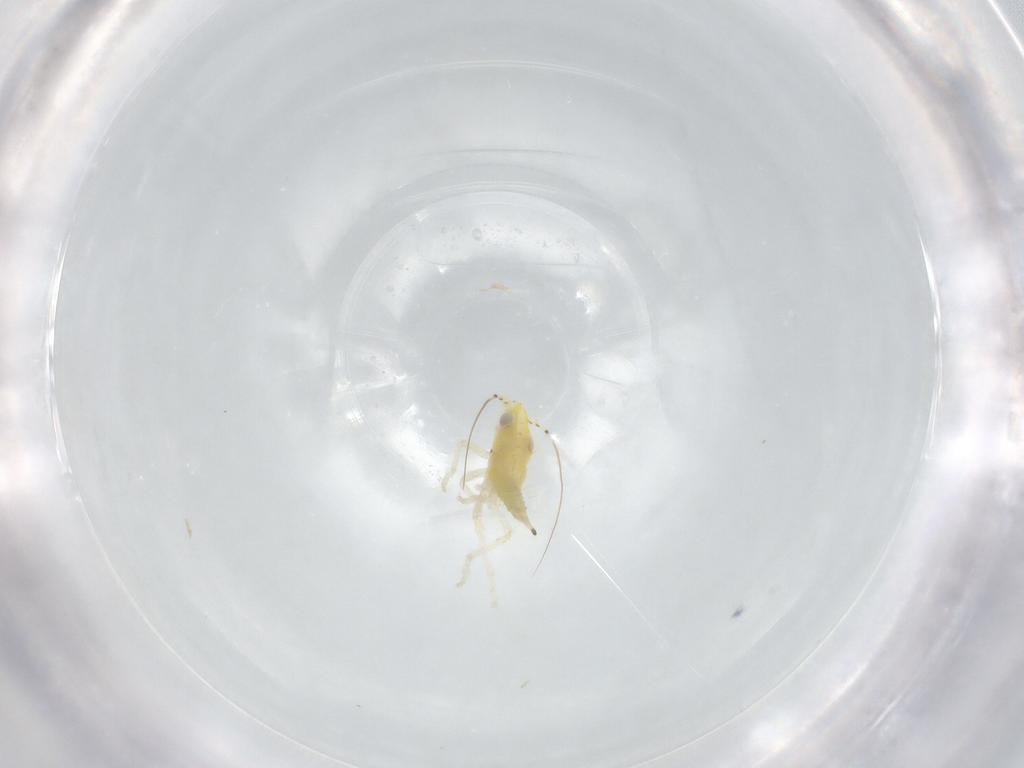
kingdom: Animalia
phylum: Arthropoda
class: Insecta
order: Hemiptera
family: Cicadellidae
